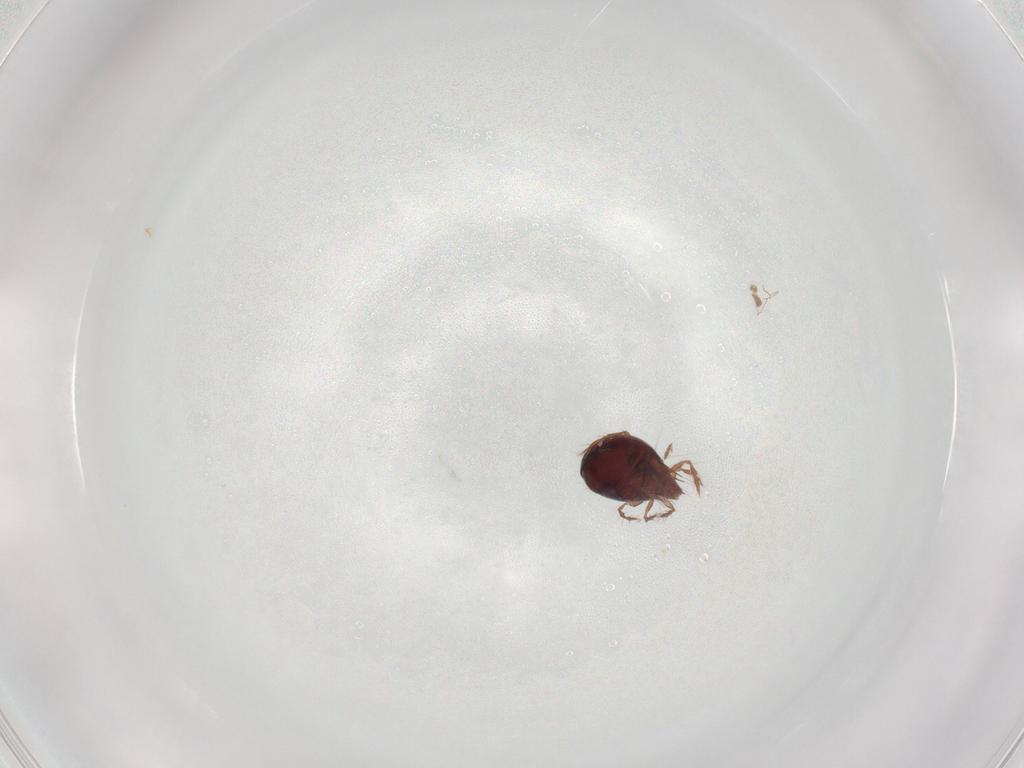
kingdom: Animalia
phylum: Arthropoda
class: Arachnida
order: Sarcoptiformes
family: Ceratoppiidae
